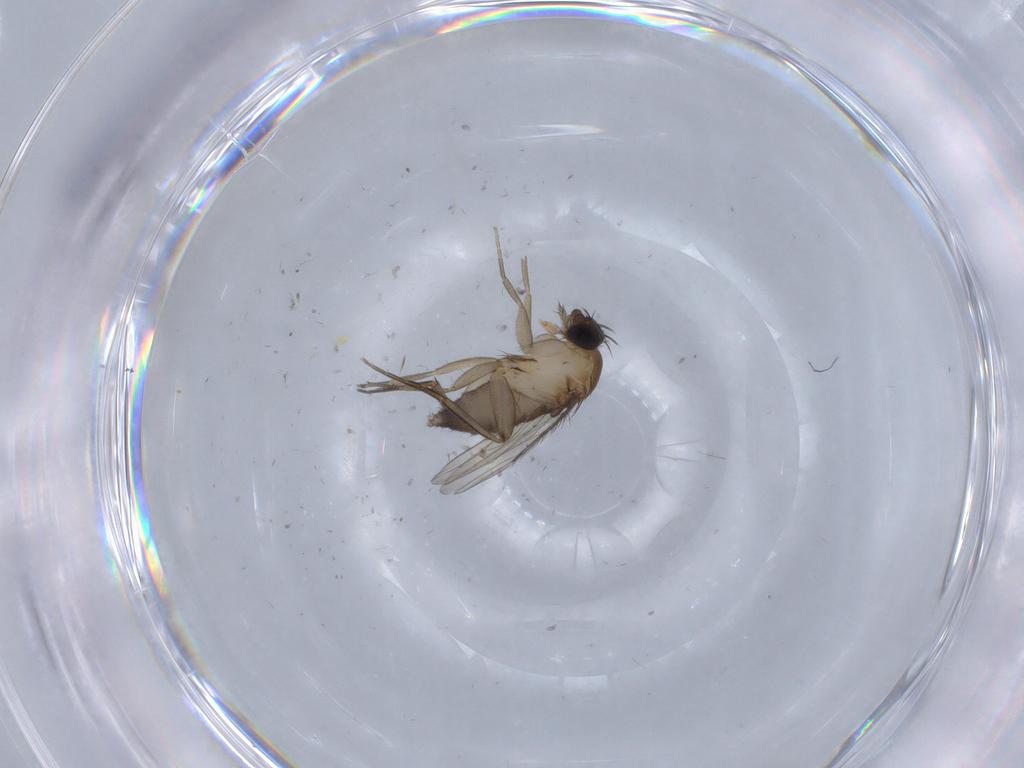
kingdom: Animalia
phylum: Arthropoda
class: Insecta
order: Diptera
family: Phoridae
